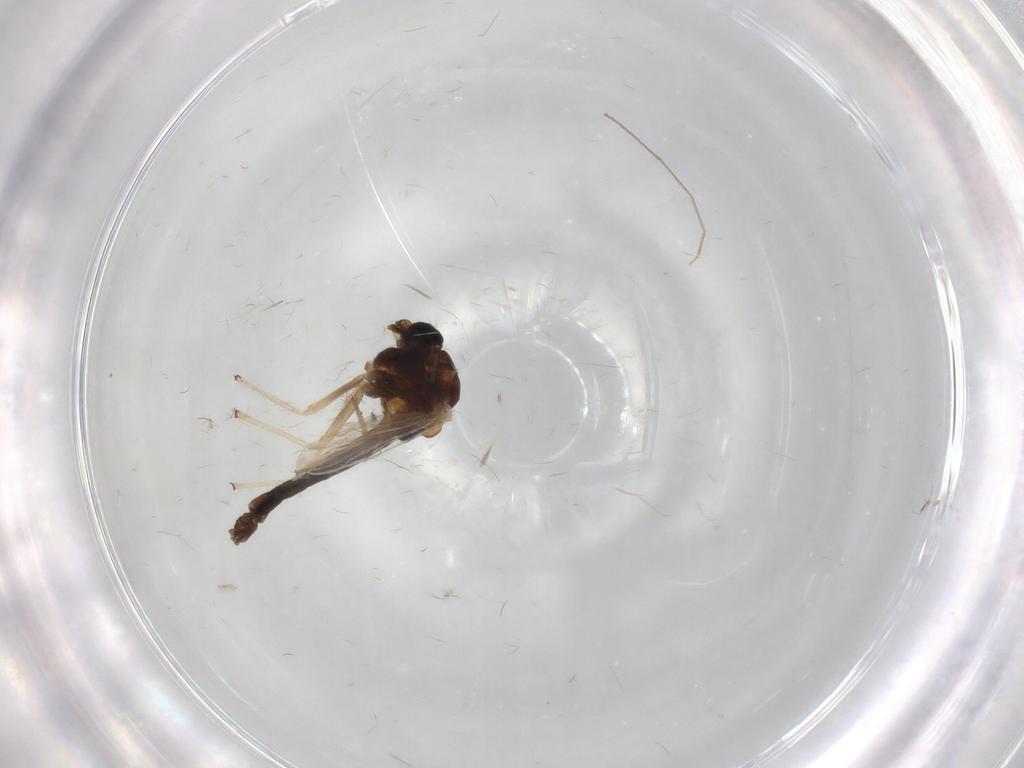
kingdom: Animalia
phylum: Arthropoda
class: Insecta
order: Diptera
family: Chironomidae
